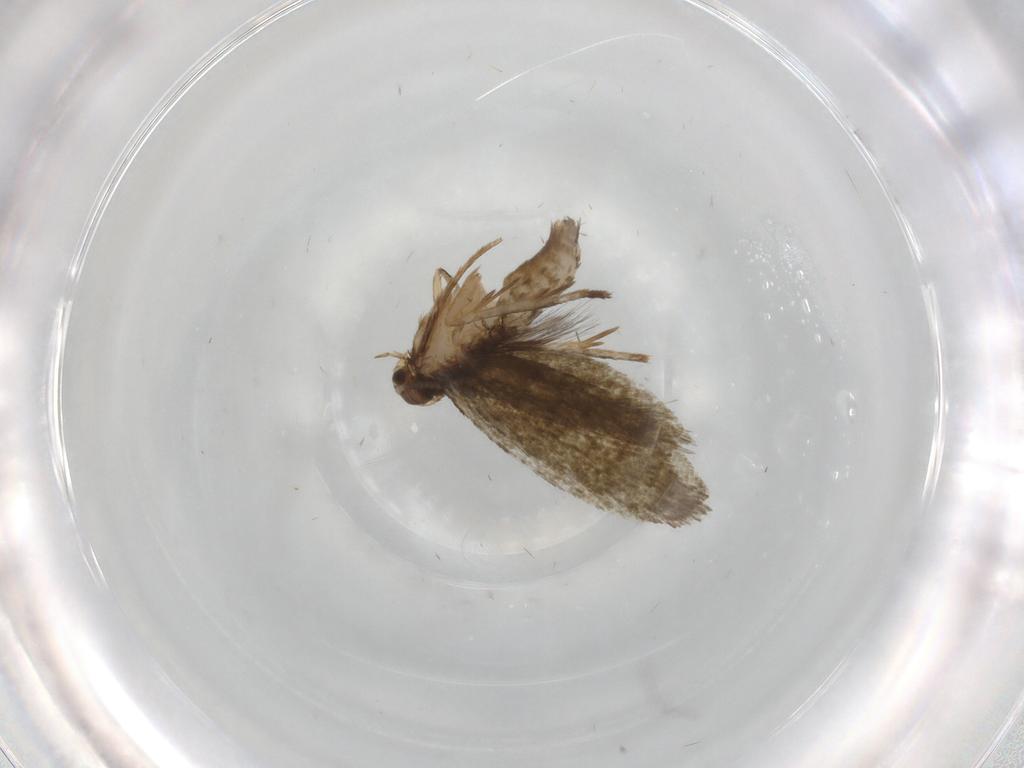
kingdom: Animalia
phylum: Arthropoda
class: Insecta
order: Lepidoptera
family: Tineidae
